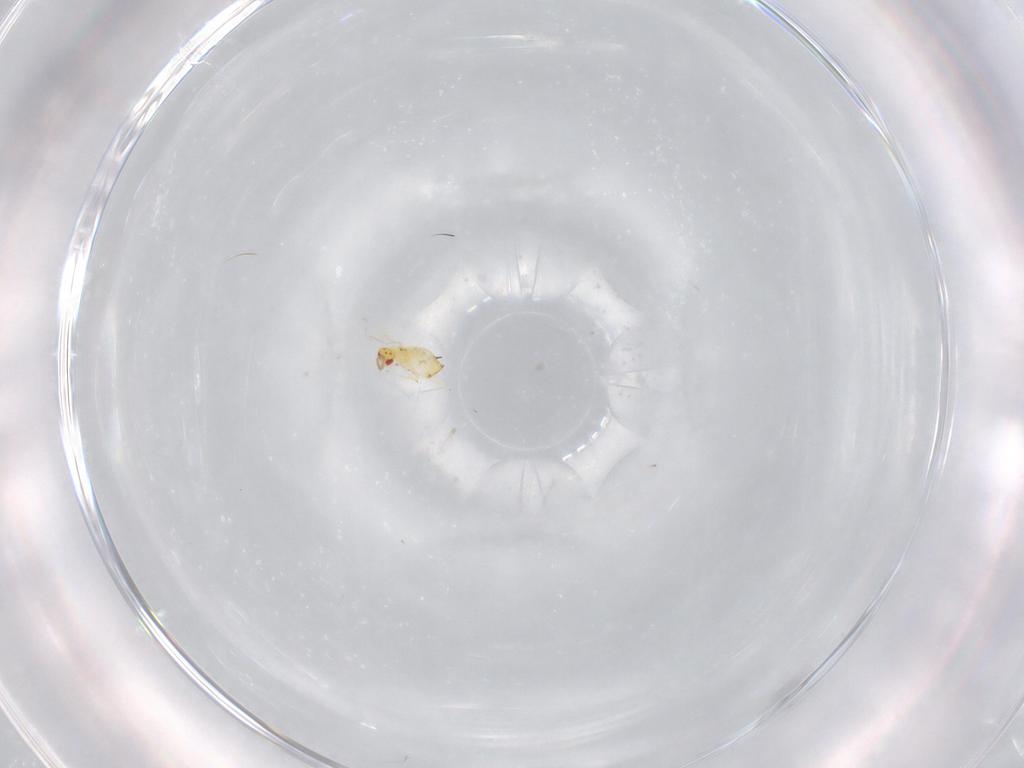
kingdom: Animalia
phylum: Arthropoda
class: Insecta
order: Hymenoptera
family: Trichogrammatidae
